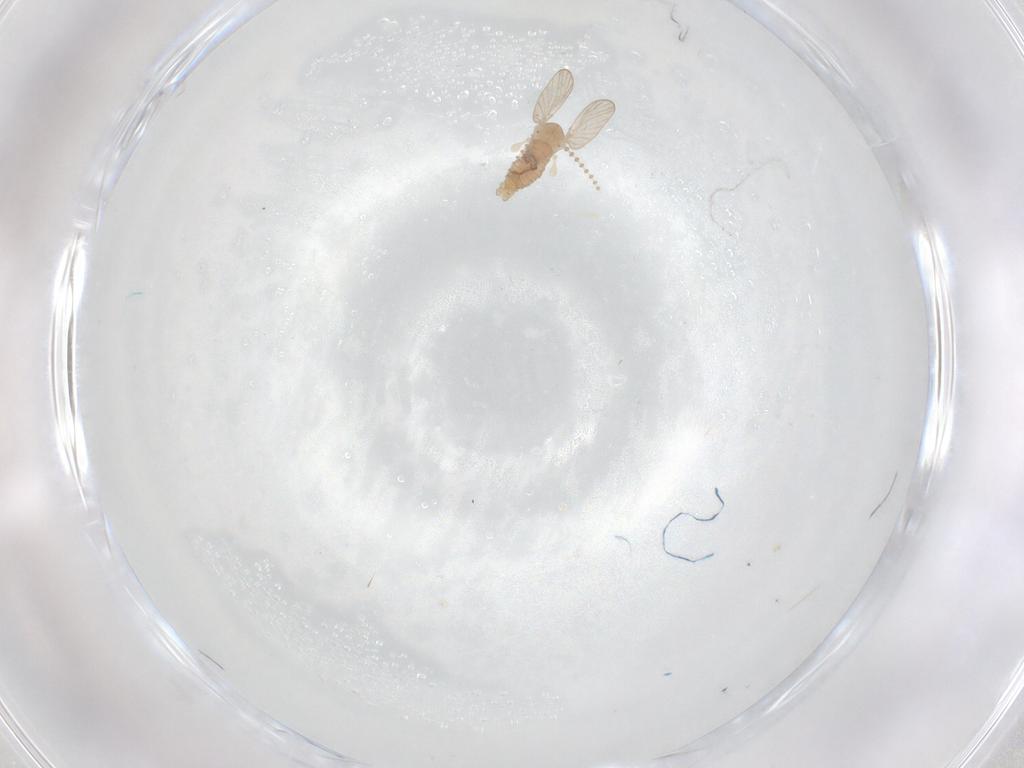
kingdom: Animalia
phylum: Arthropoda
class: Insecta
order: Diptera
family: Psychodidae
